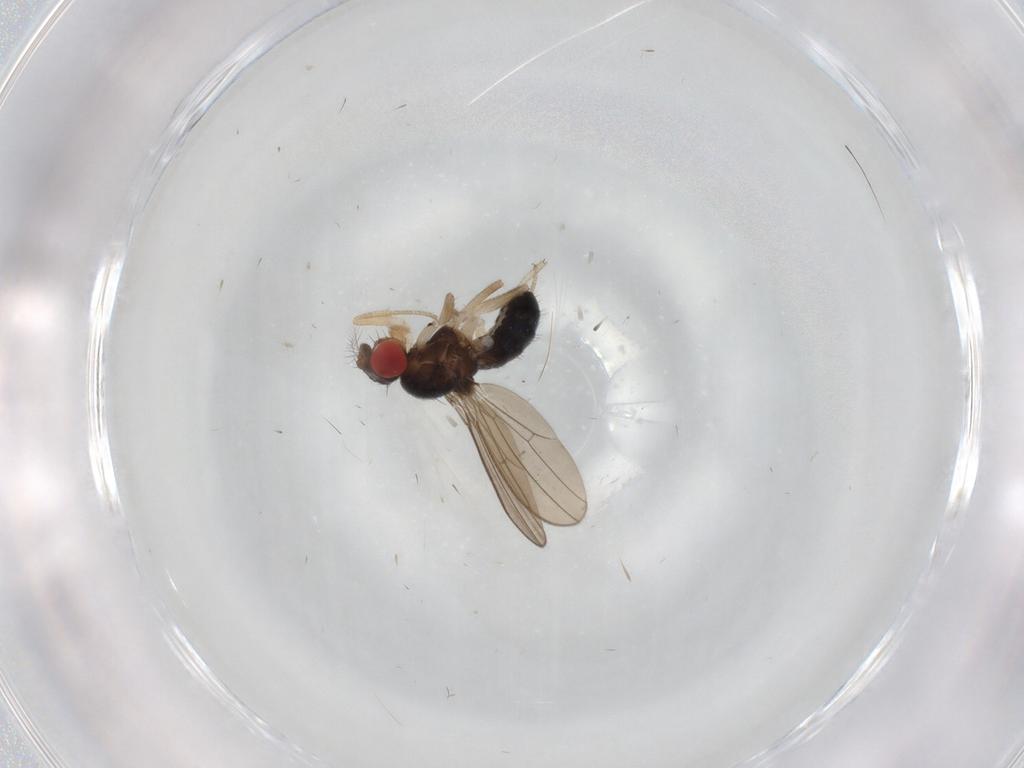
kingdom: Animalia
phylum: Arthropoda
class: Insecta
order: Diptera
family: Drosophilidae
